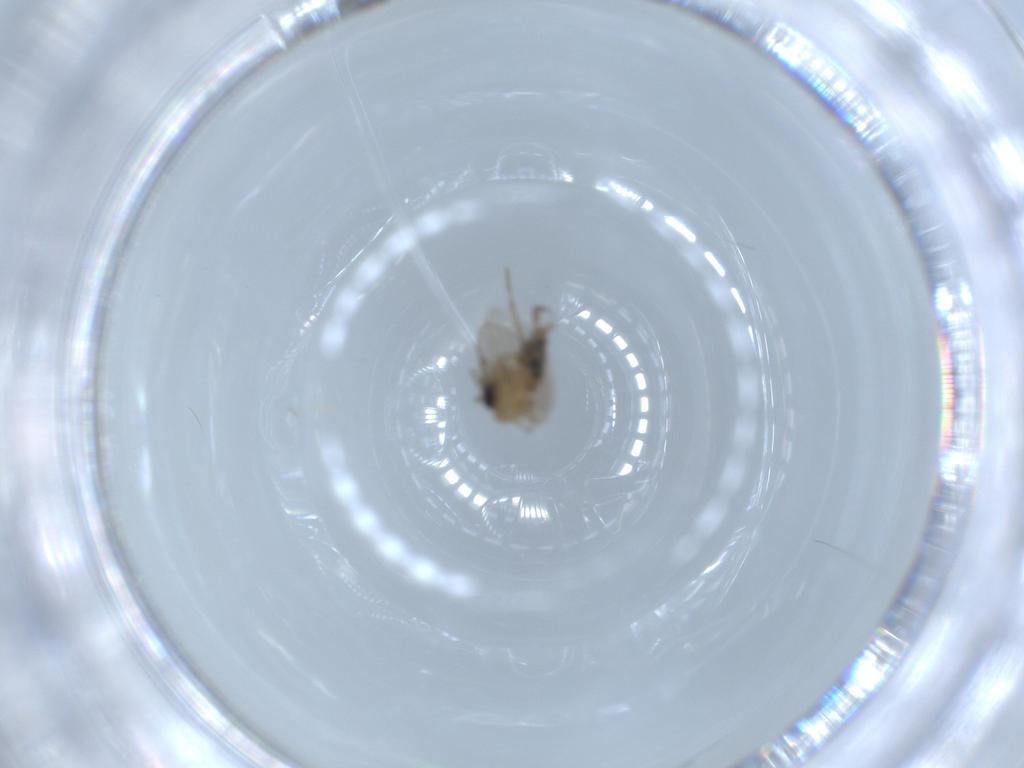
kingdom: Animalia
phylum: Arthropoda
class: Insecta
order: Diptera
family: Psychodidae
